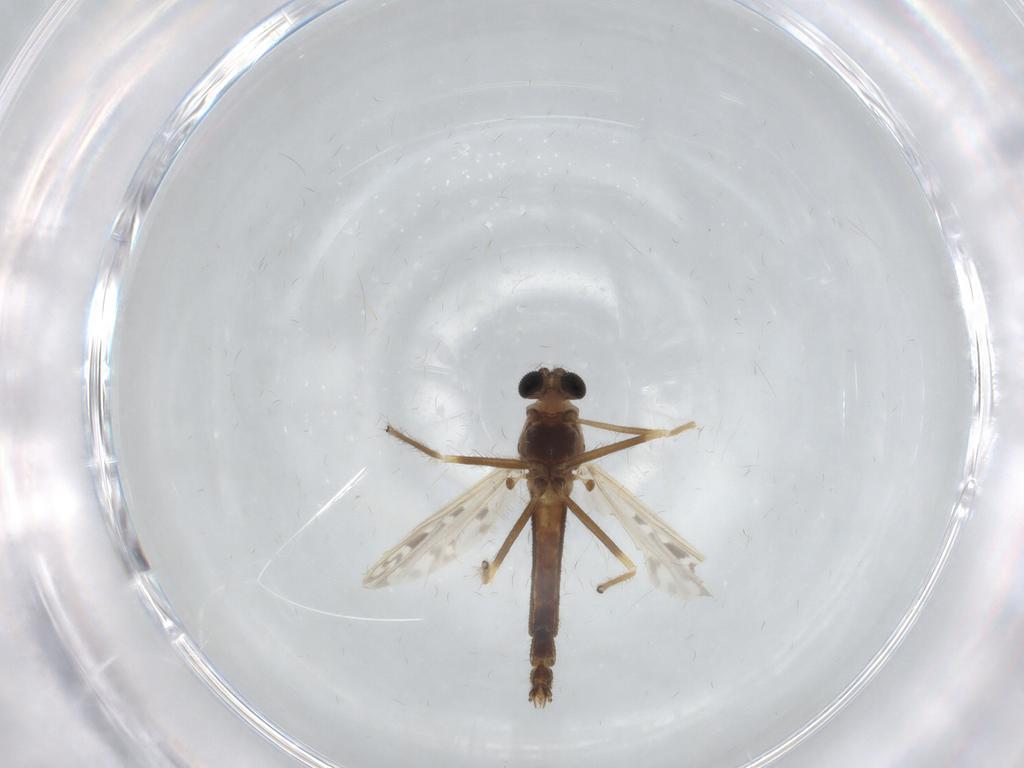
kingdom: Animalia
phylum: Arthropoda
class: Insecta
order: Diptera
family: Chironomidae
